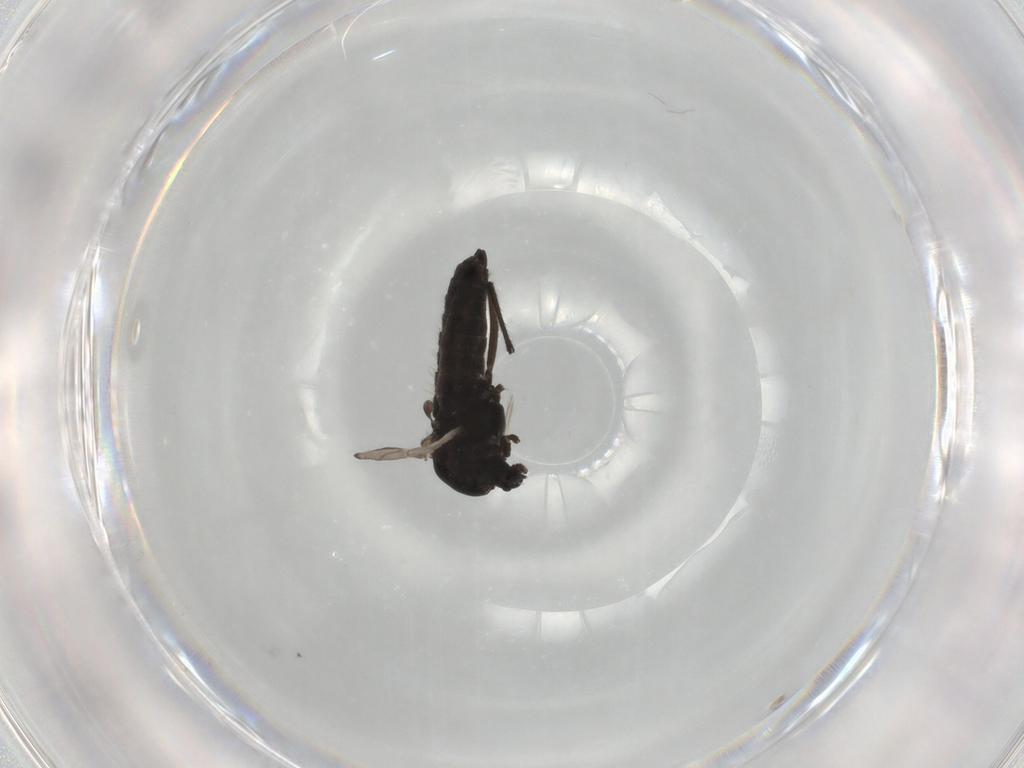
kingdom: Animalia
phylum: Arthropoda
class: Insecta
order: Diptera
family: Chironomidae
